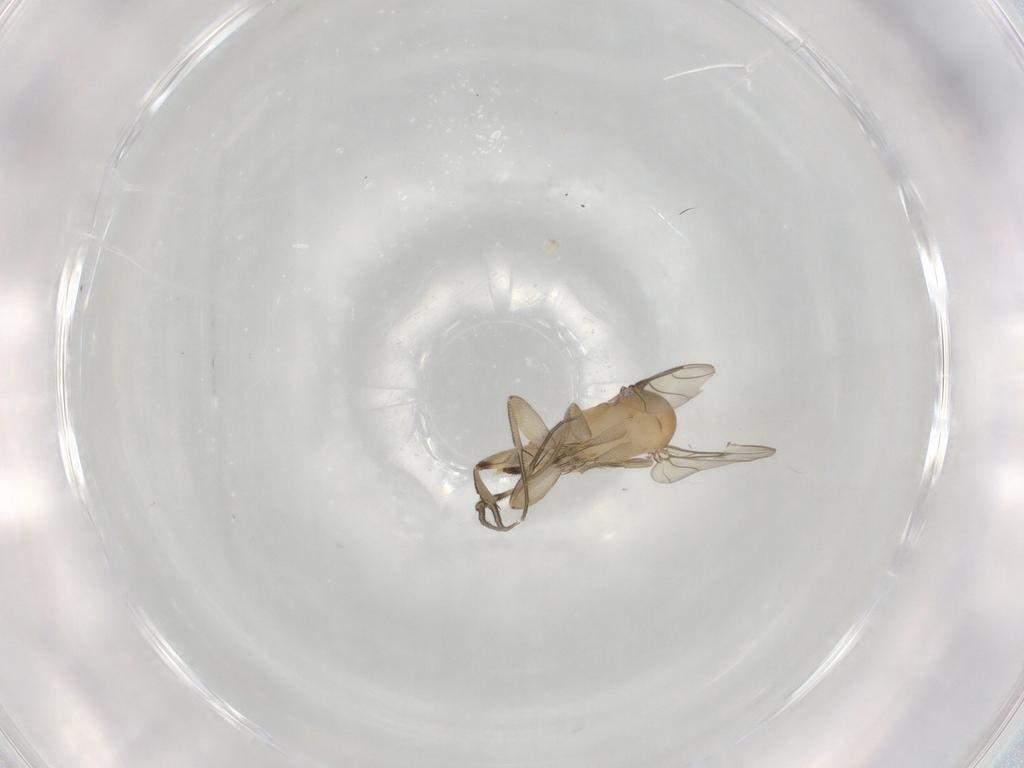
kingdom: Animalia
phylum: Arthropoda
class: Insecta
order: Diptera
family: Phoridae
